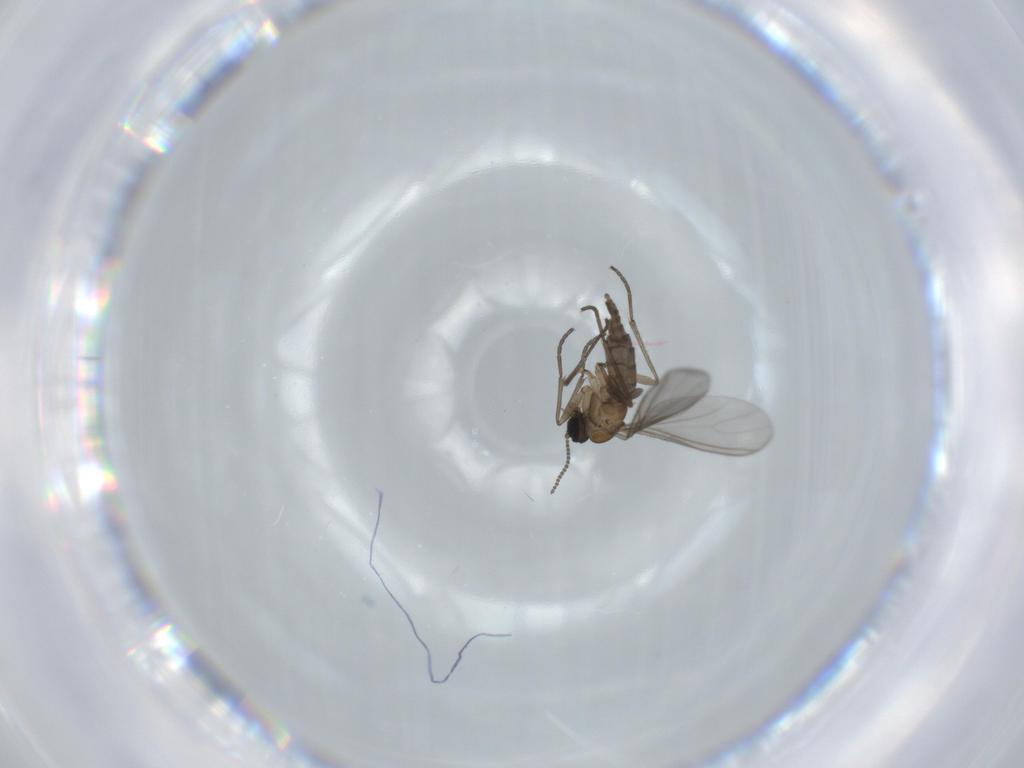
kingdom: Animalia
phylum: Arthropoda
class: Insecta
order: Diptera
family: Sciaridae
